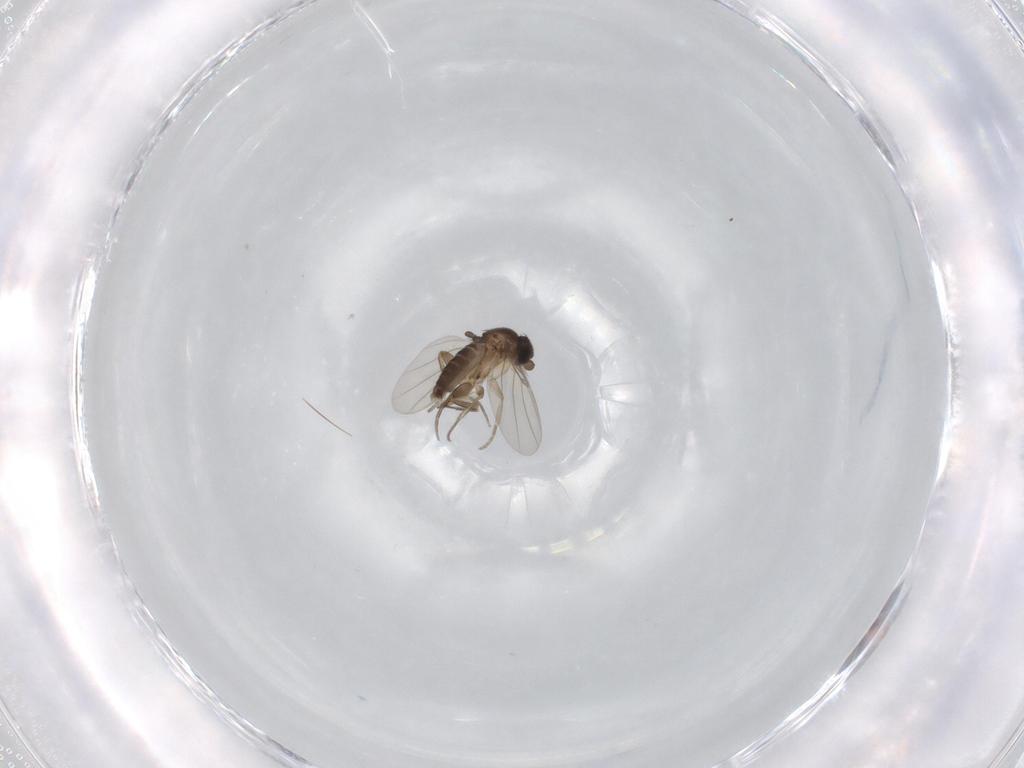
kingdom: Animalia
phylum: Arthropoda
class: Insecta
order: Diptera
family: Phoridae
